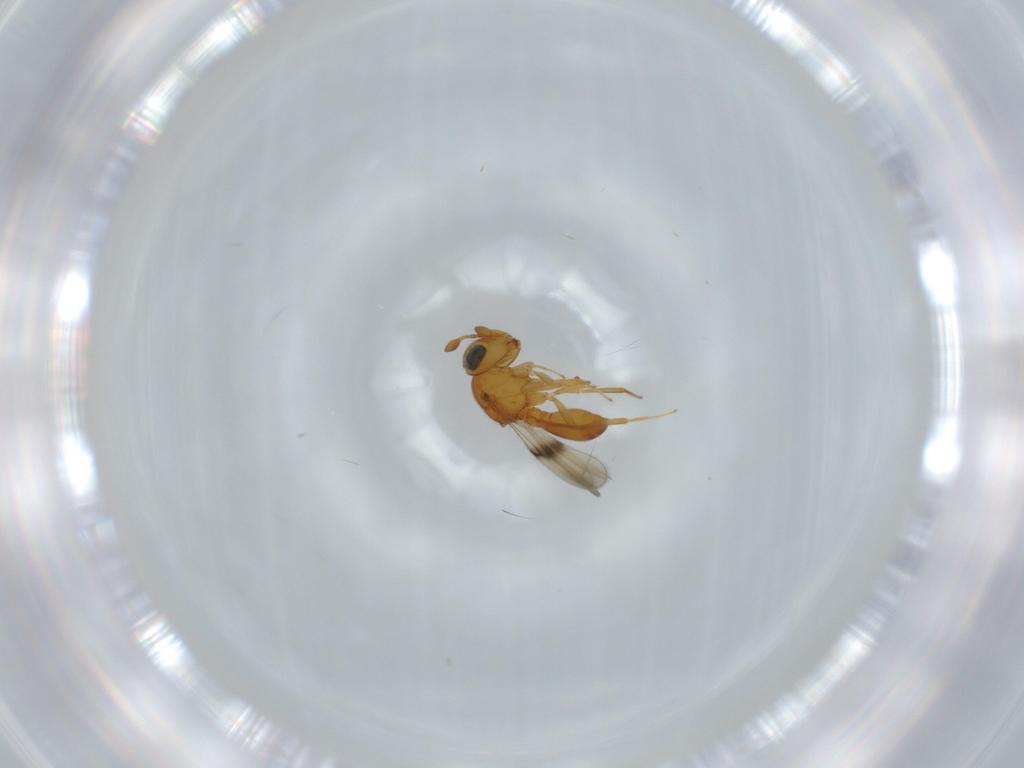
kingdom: Animalia
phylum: Arthropoda
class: Insecta
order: Hymenoptera
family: Scelionidae
